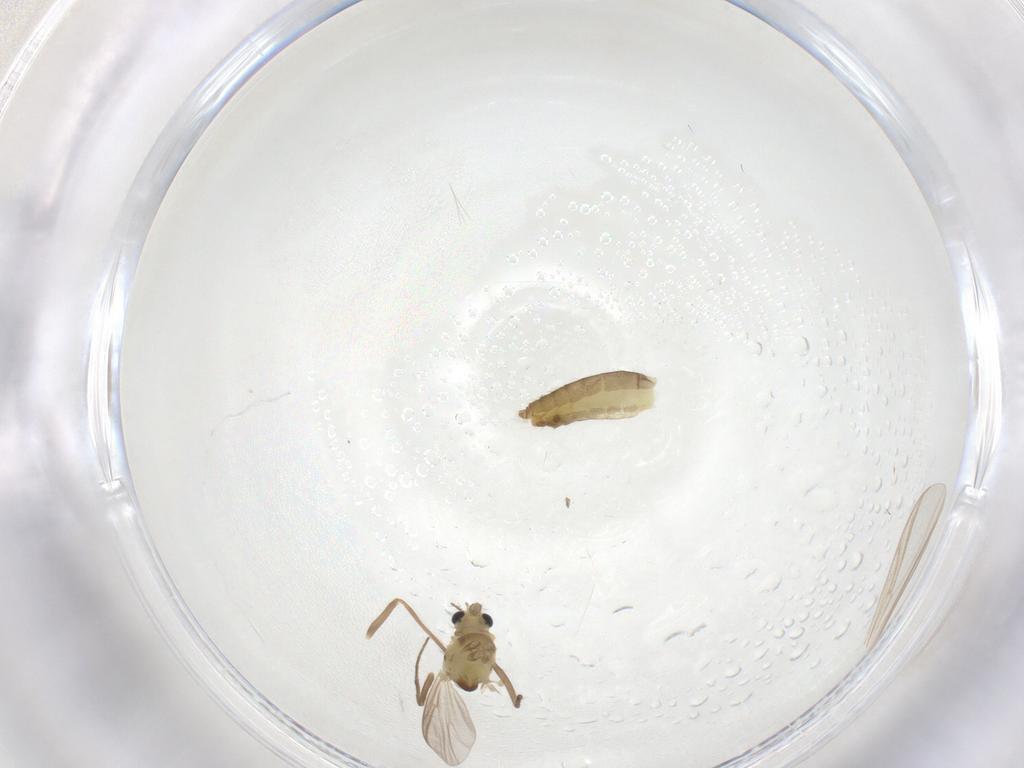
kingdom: Animalia
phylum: Arthropoda
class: Insecta
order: Diptera
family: Chironomidae
